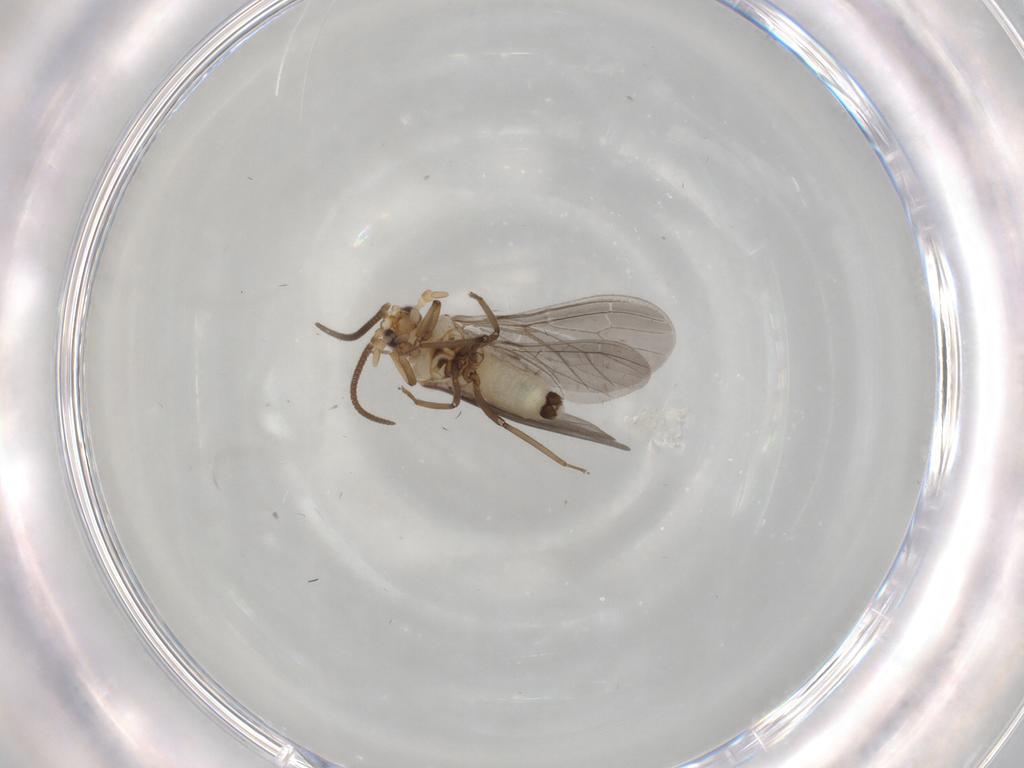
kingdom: Animalia
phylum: Arthropoda
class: Insecta
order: Neuroptera
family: Coniopterygidae
